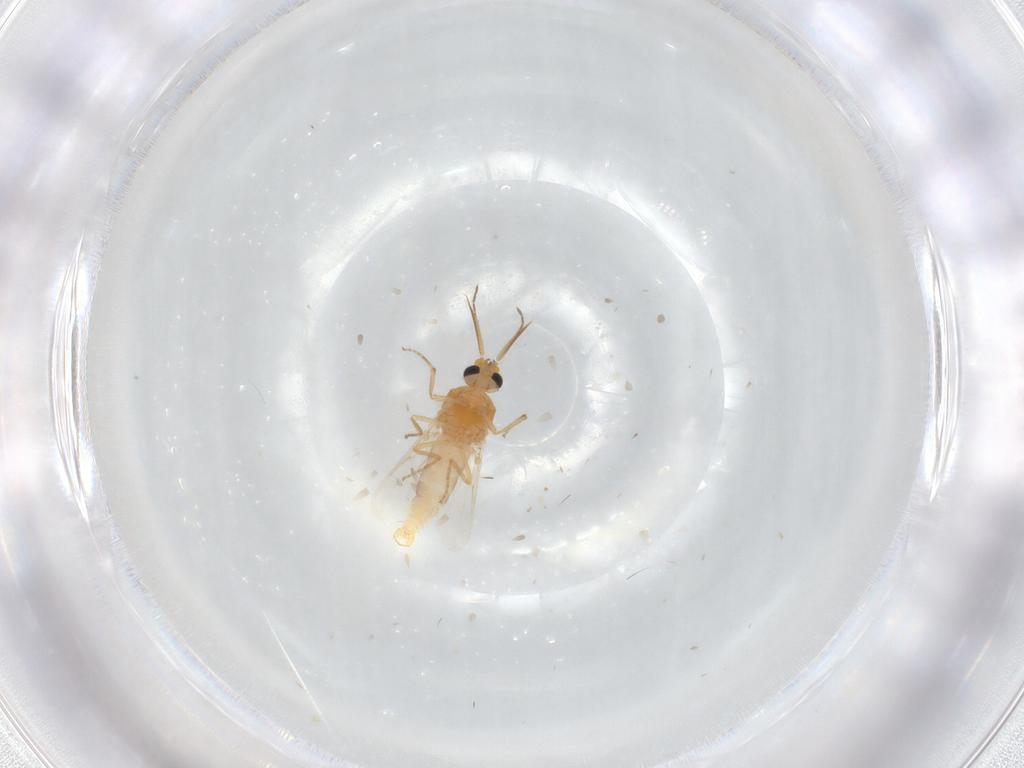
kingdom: Animalia
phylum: Arthropoda
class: Insecta
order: Diptera
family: Ceratopogonidae
